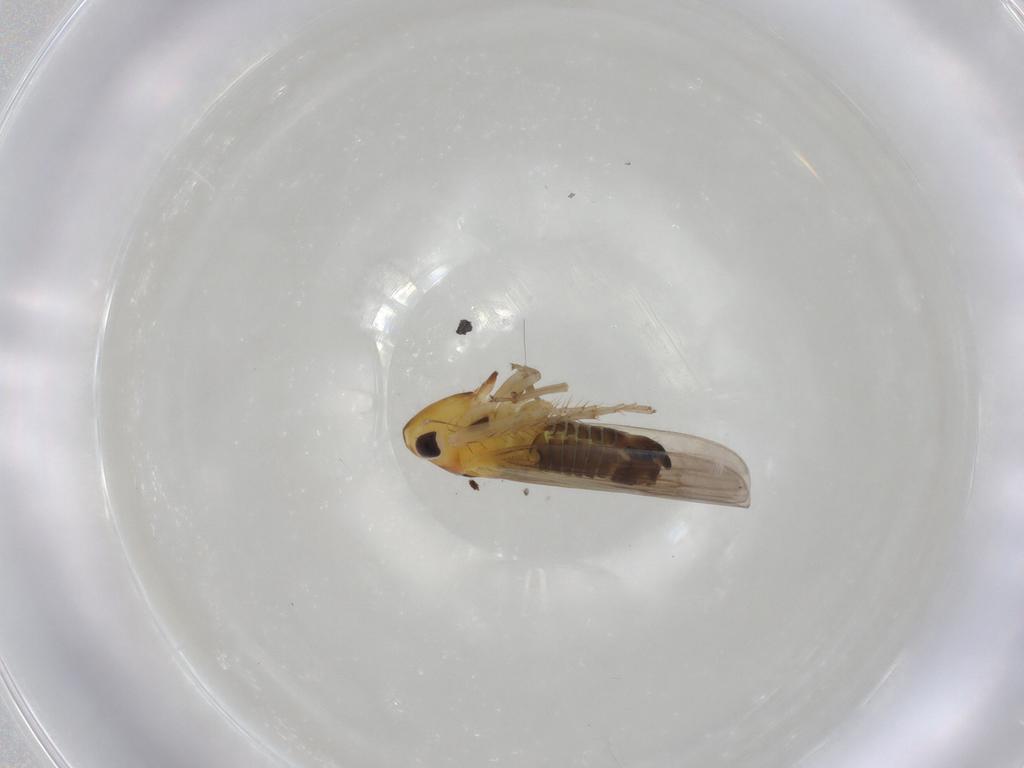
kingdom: Animalia
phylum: Arthropoda
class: Insecta
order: Hemiptera
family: Cicadellidae
